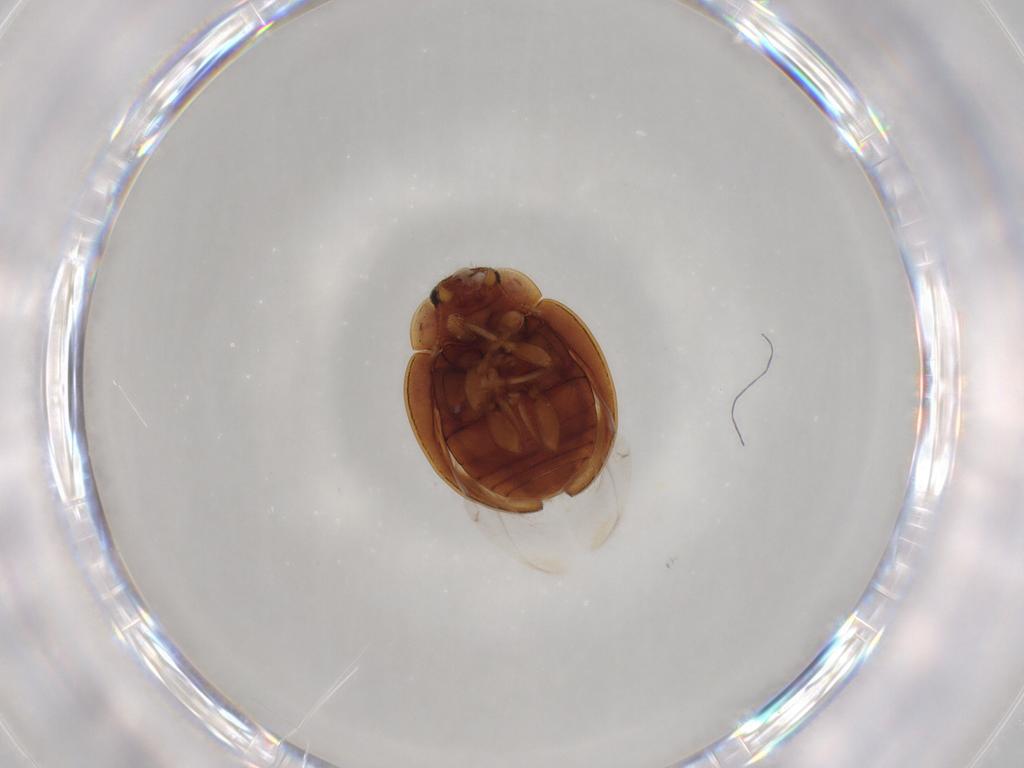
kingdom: Animalia
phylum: Arthropoda
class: Insecta
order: Coleoptera
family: Coccinellidae
